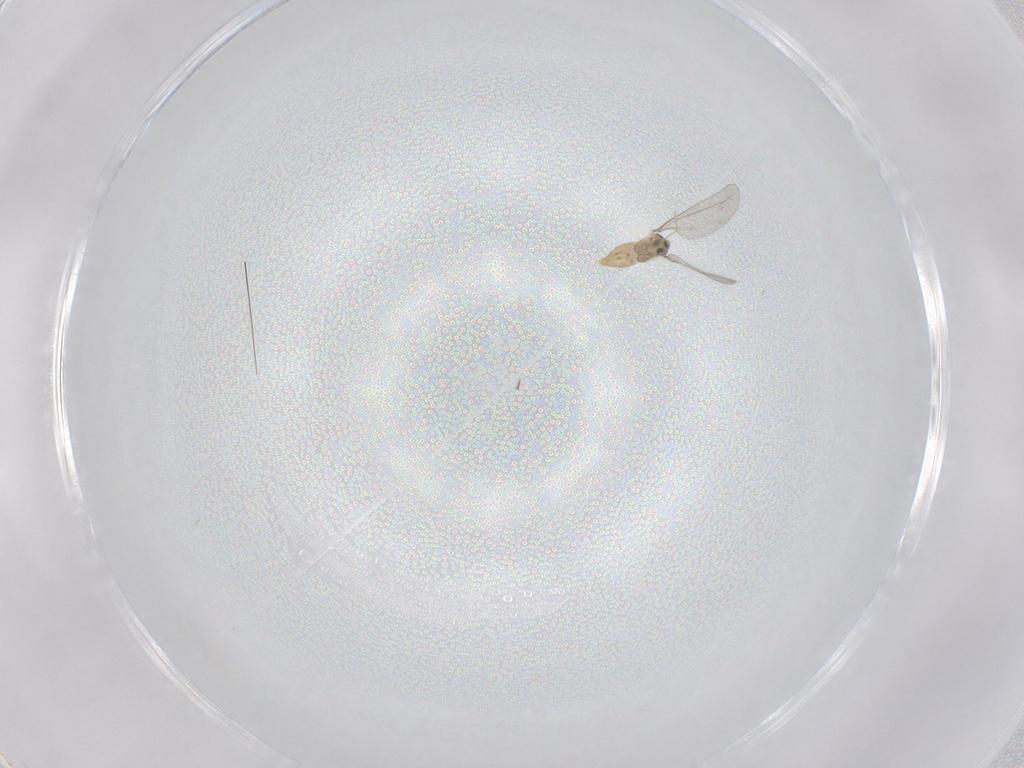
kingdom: Animalia
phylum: Arthropoda
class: Insecta
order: Diptera
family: Cecidomyiidae
